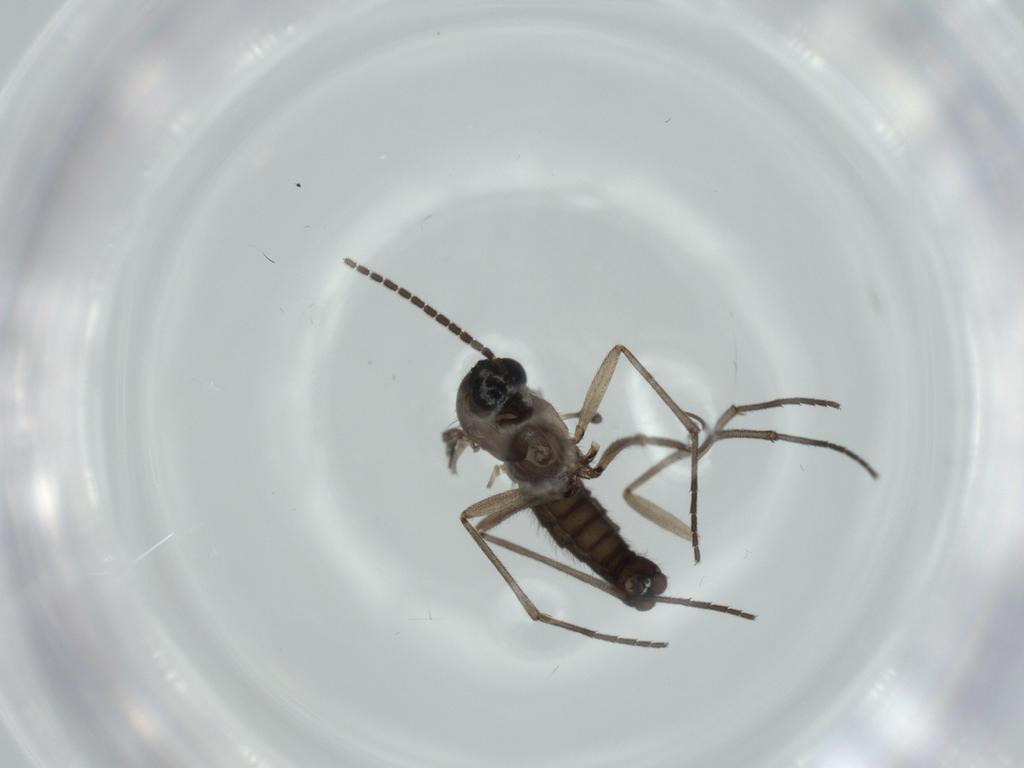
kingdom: Animalia
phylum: Arthropoda
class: Insecta
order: Diptera
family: Sciaridae
